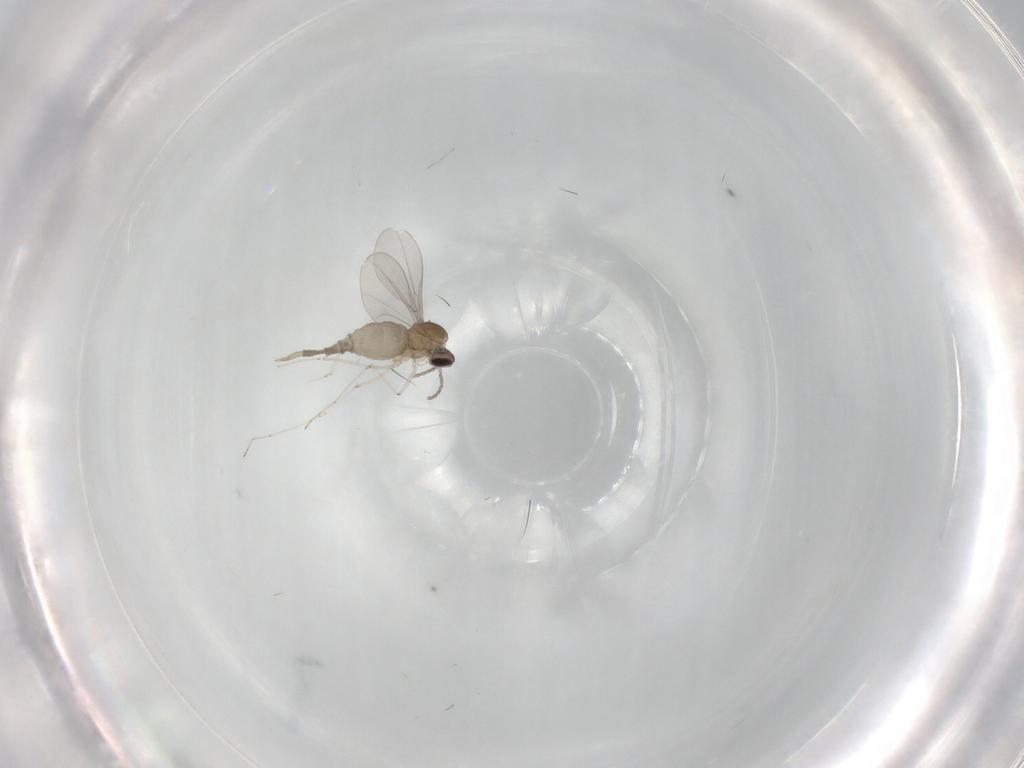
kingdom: Animalia
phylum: Arthropoda
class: Insecta
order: Diptera
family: Cecidomyiidae
